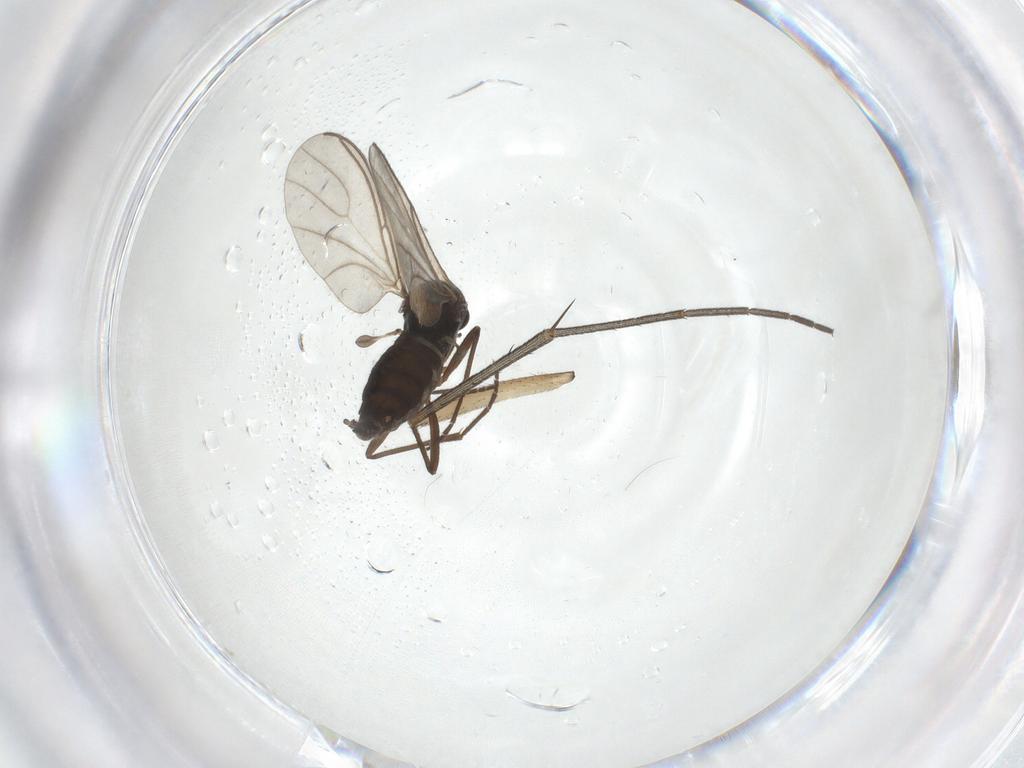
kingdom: Animalia
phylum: Arthropoda
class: Insecta
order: Diptera
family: Sciaridae
